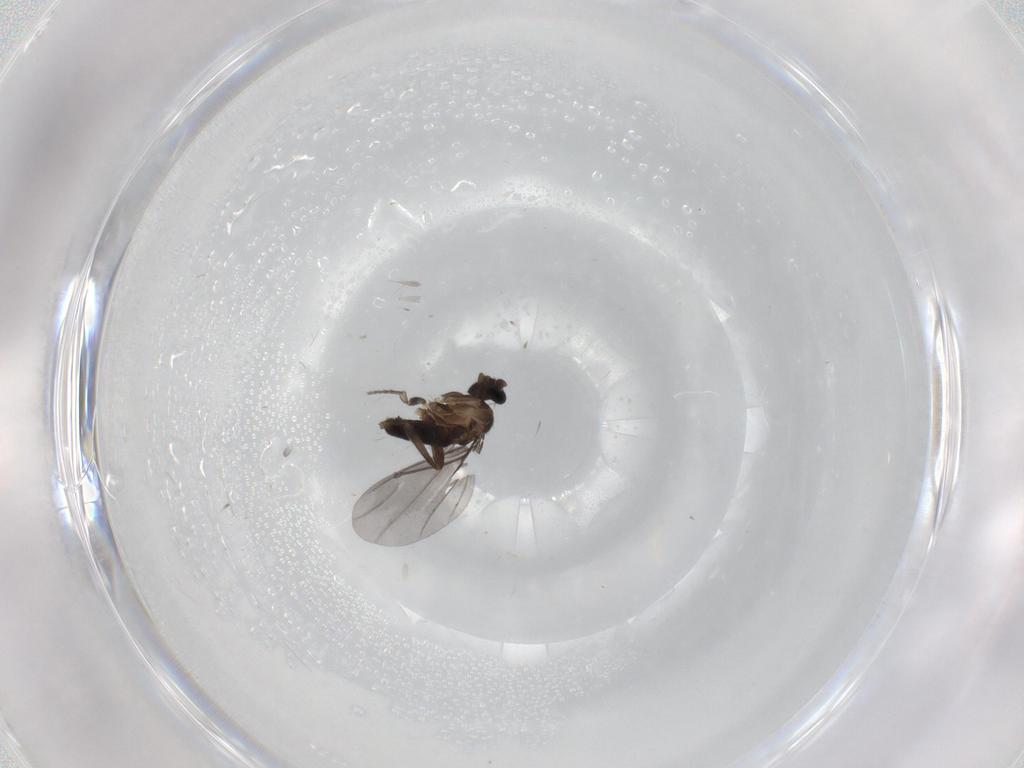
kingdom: Animalia
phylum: Arthropoda
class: Insecta
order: Diptera
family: Phoridae
